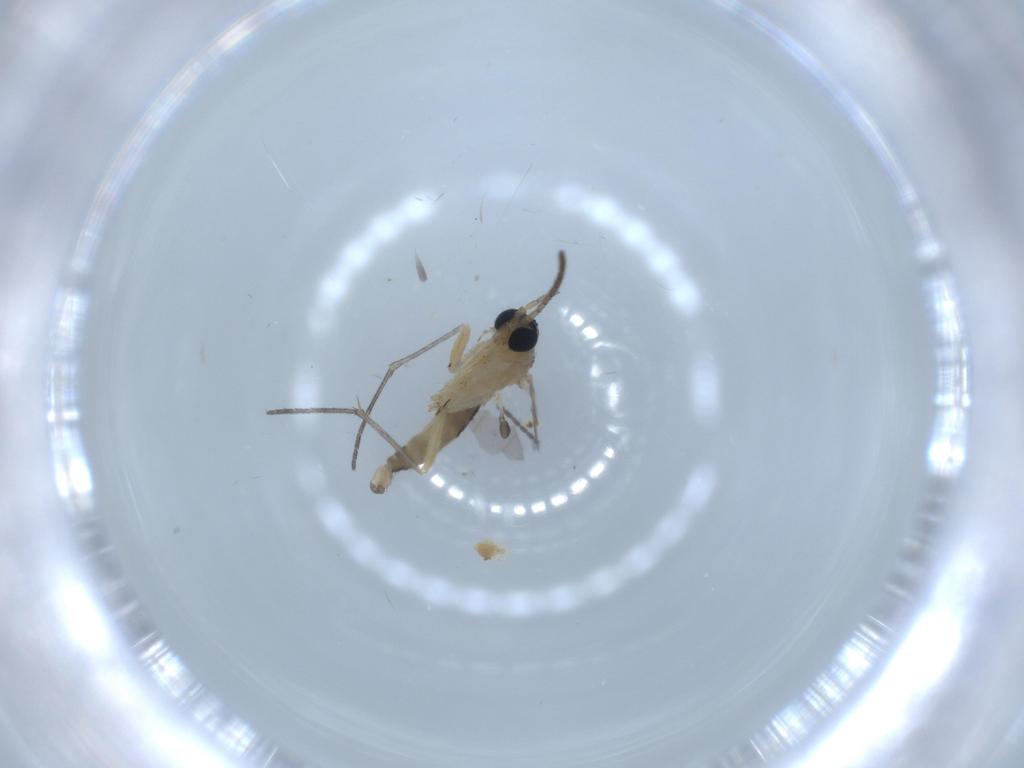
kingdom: Animalia
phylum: Arthropoda
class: Insecta
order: Diptera
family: Sciaridae
